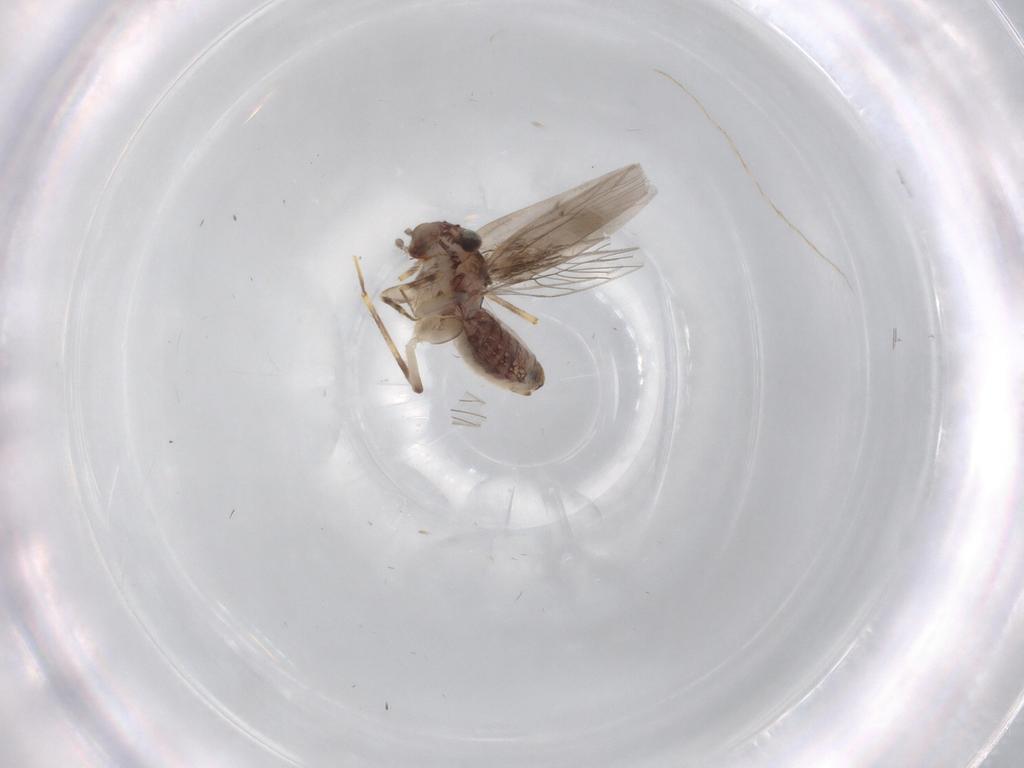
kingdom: Animalia
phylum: Arthropoda
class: Insecta
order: Psocodea
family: Lepidopsocidae
